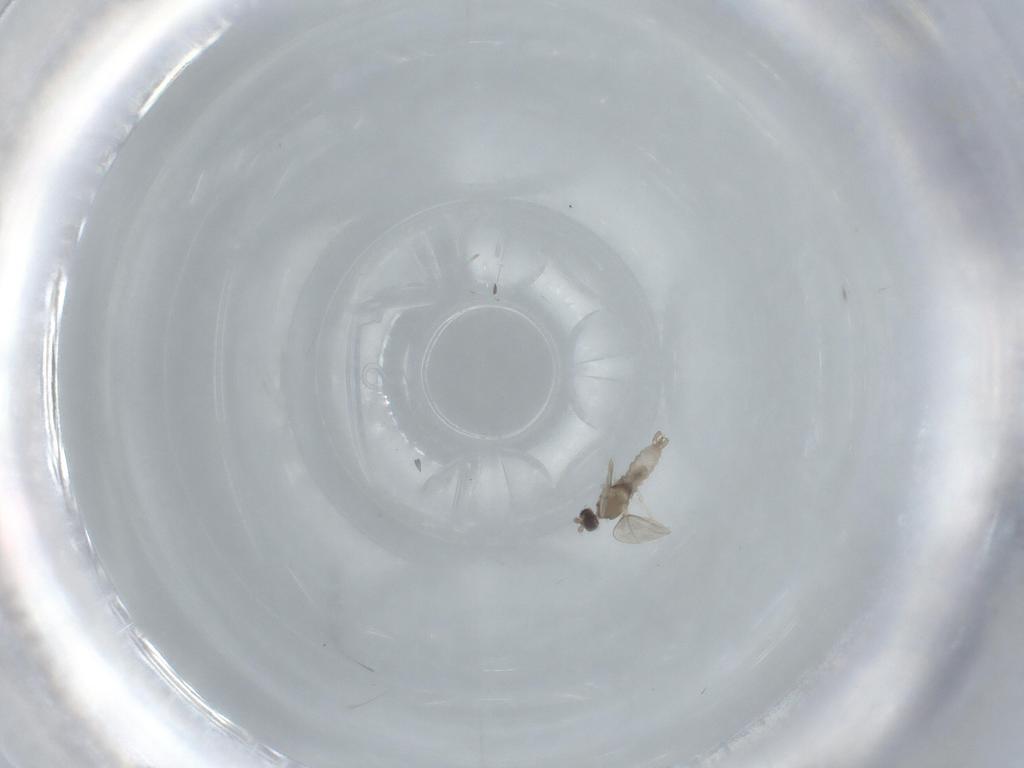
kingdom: Animalia
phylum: Arthropoda
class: Insecta
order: Diptera
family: Cecidomyiidae
